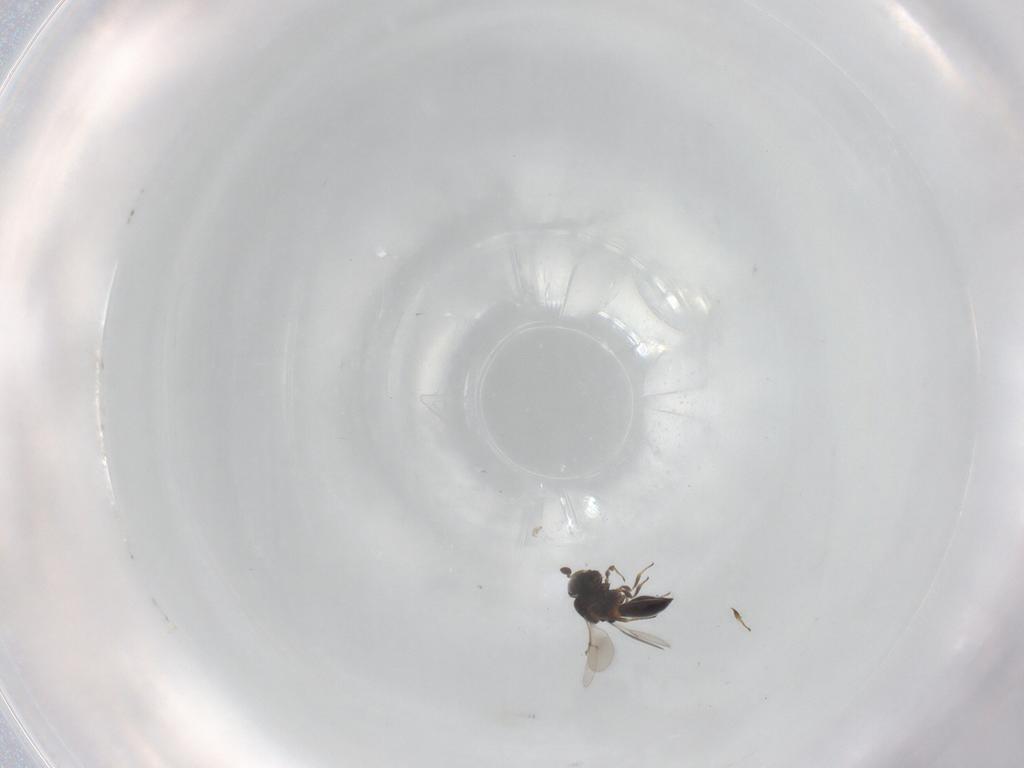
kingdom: Animalia
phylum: Arthropoda
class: Insecta
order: Hymenoptera
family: Scelionidae
